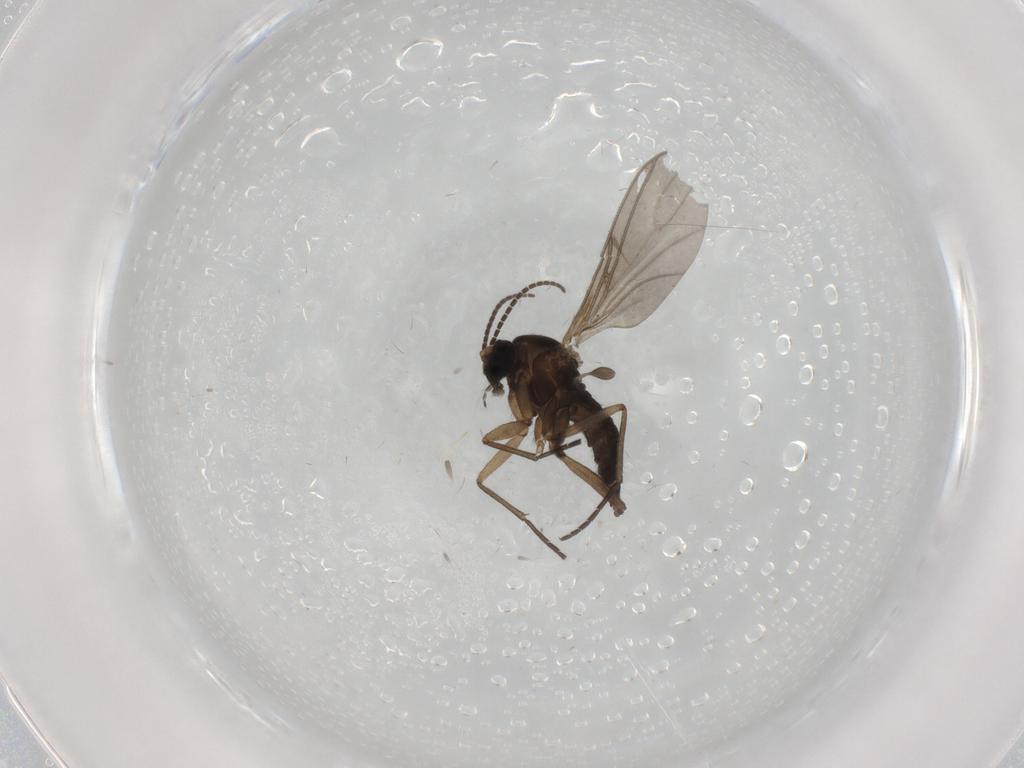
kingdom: Animalia
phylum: Arthropoda
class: Insecta
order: Diptera
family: Sciaridae
